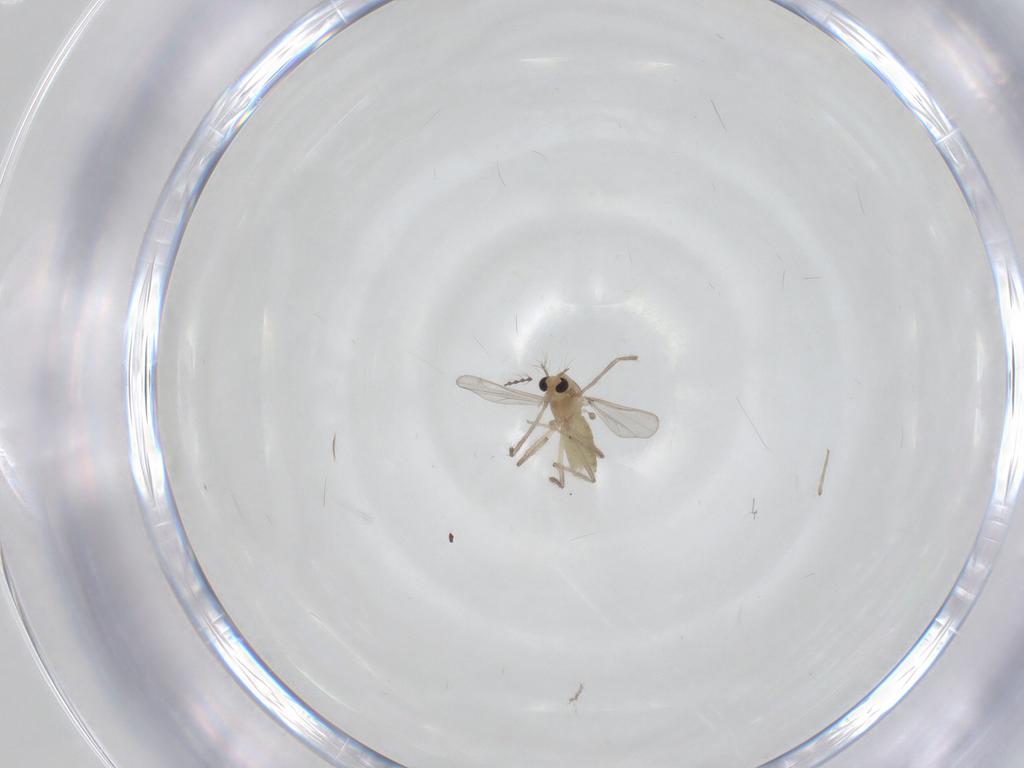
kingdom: Animalia
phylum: Arthropoda
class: Insecta
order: Diptera
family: Chironomidae
